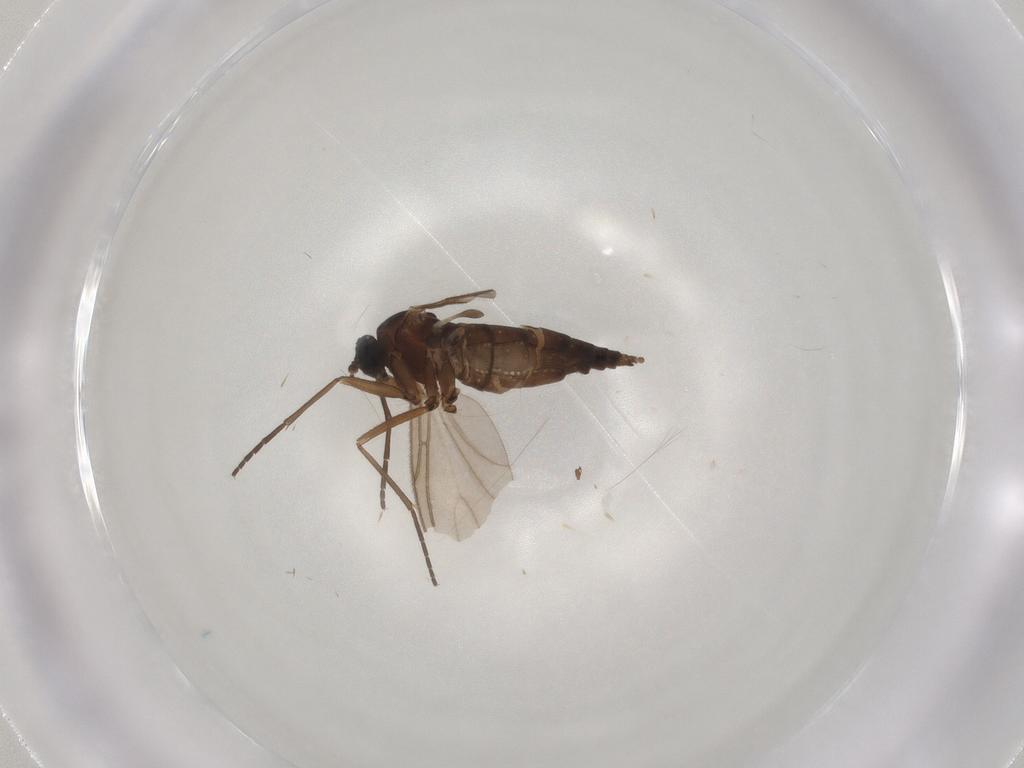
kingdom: Animalia
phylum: Arthropoda
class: Insecta
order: Diptera
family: Sciaridae
